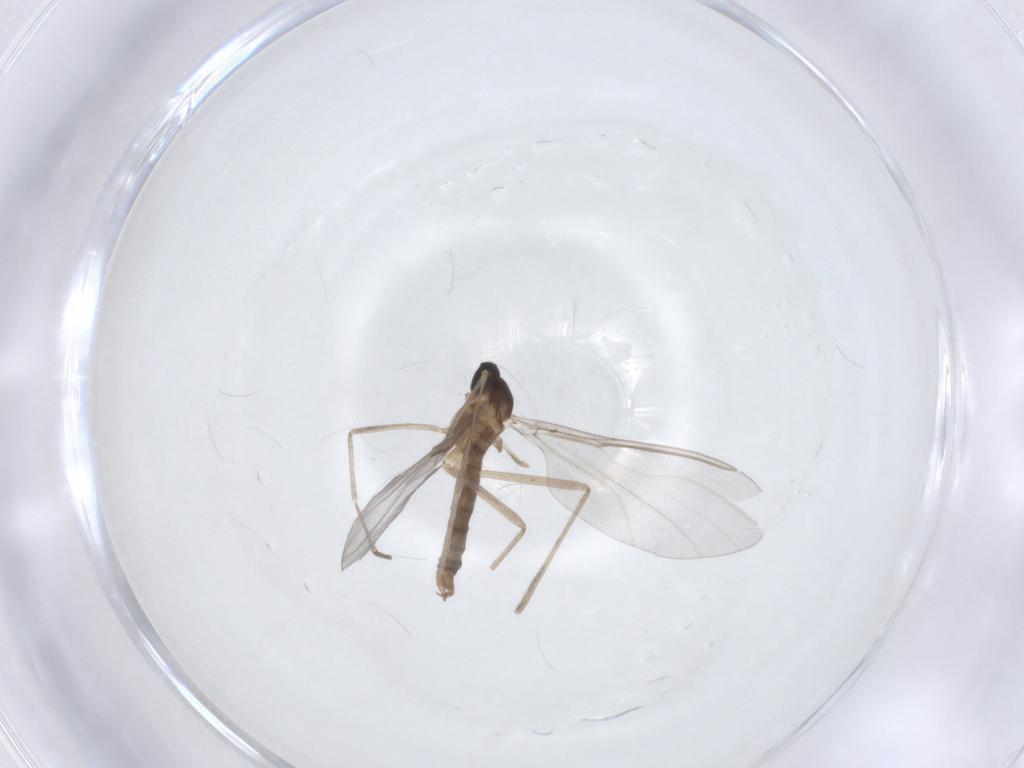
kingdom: Animalia
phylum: Arthropoda
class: Insecta
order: Diptera
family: Cecidomyiidae
